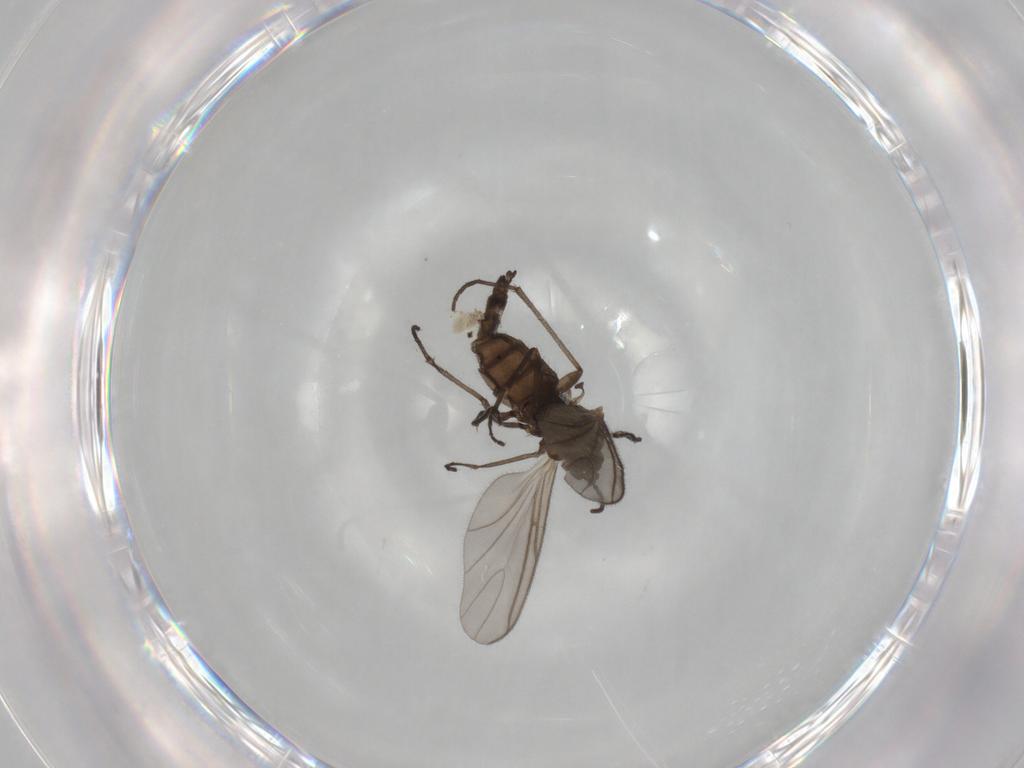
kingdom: Animalia
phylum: Arthropoda
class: Insecta
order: Diptera
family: Sciaridae
